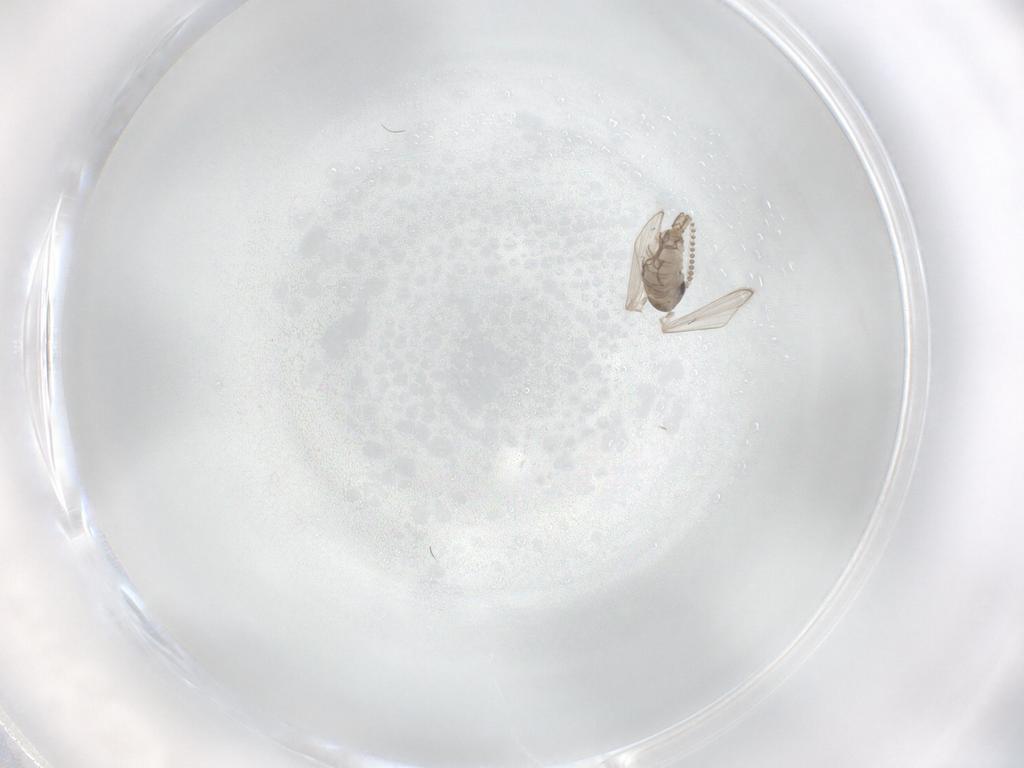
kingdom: Animalia
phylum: Arthropoda
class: Insecta
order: Diptera
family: Psychodidae
